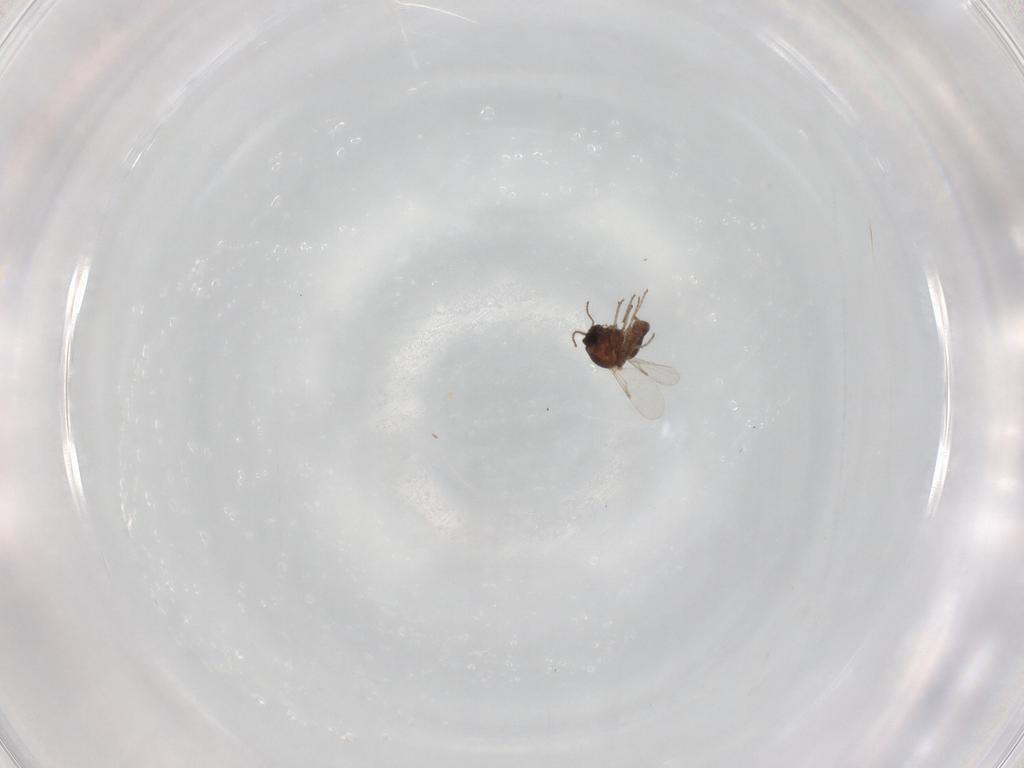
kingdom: Animalia
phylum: Arthropoda
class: Insecta
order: Diptera
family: Ceratopogonidae
